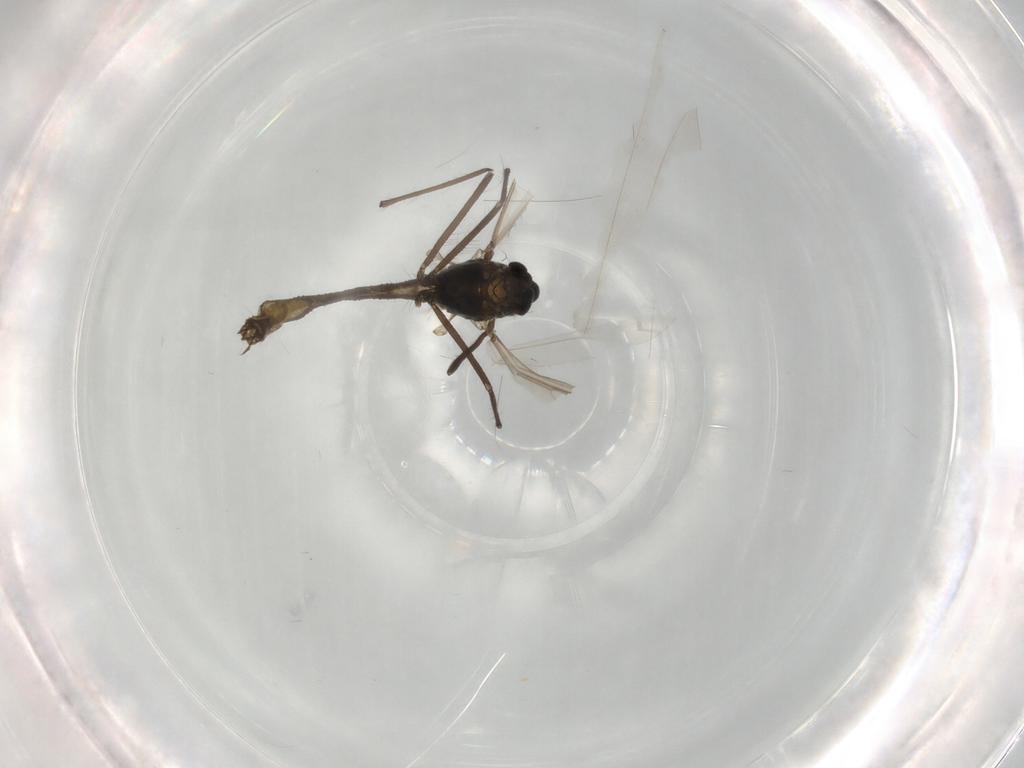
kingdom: Animalia
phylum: Arthropoda
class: Insecta
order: Diptera
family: Chironomidae
